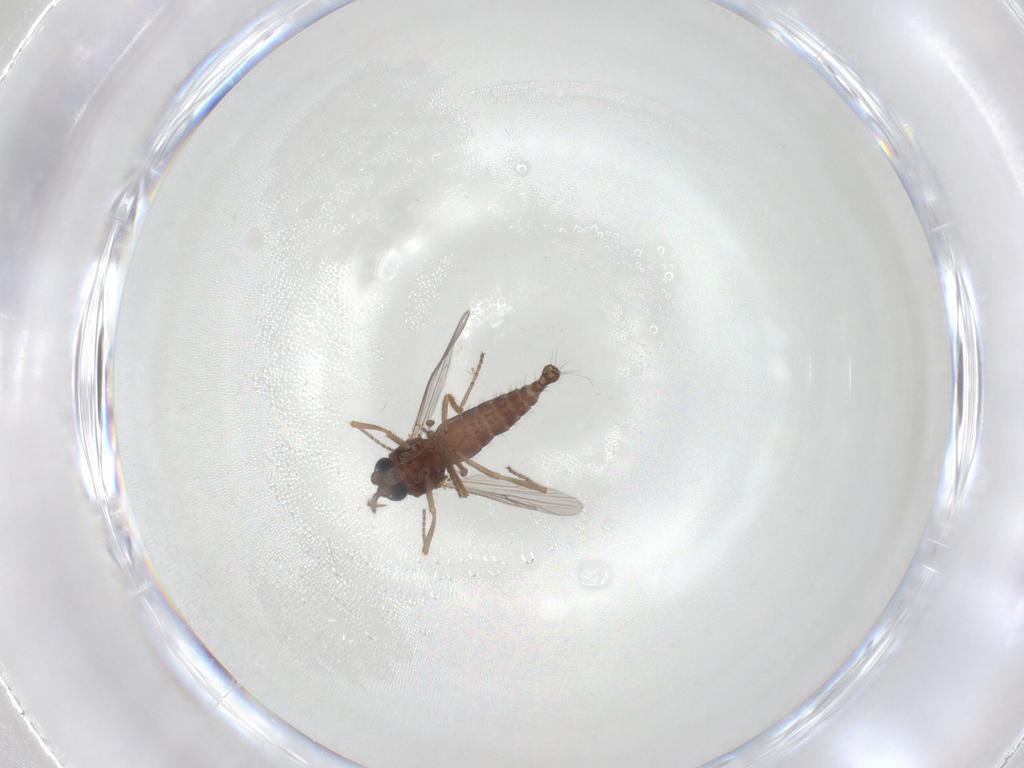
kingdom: Animalia
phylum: Arthropoda
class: Insecta
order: Diptera
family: Ceratopogonidae
